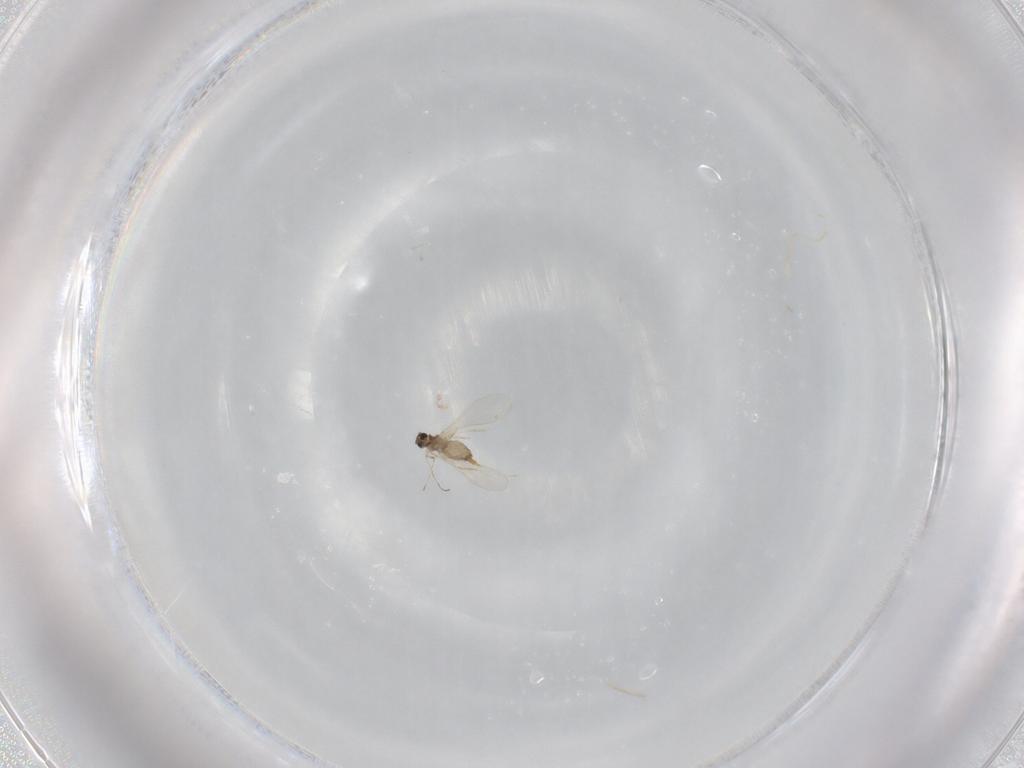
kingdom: Animalia
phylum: Arthropoda
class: Insecta
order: Diptera
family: Limoniidae
